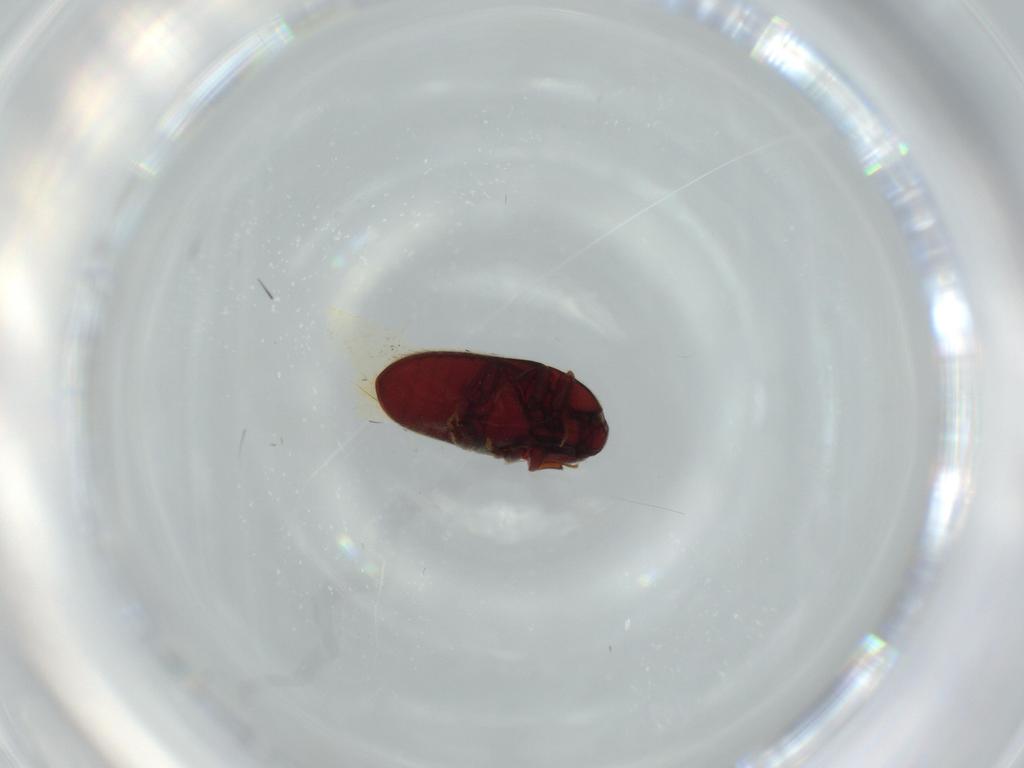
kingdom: Animalia
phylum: Arthropoda
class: Insecta
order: Coleoptera
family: Throscidae
